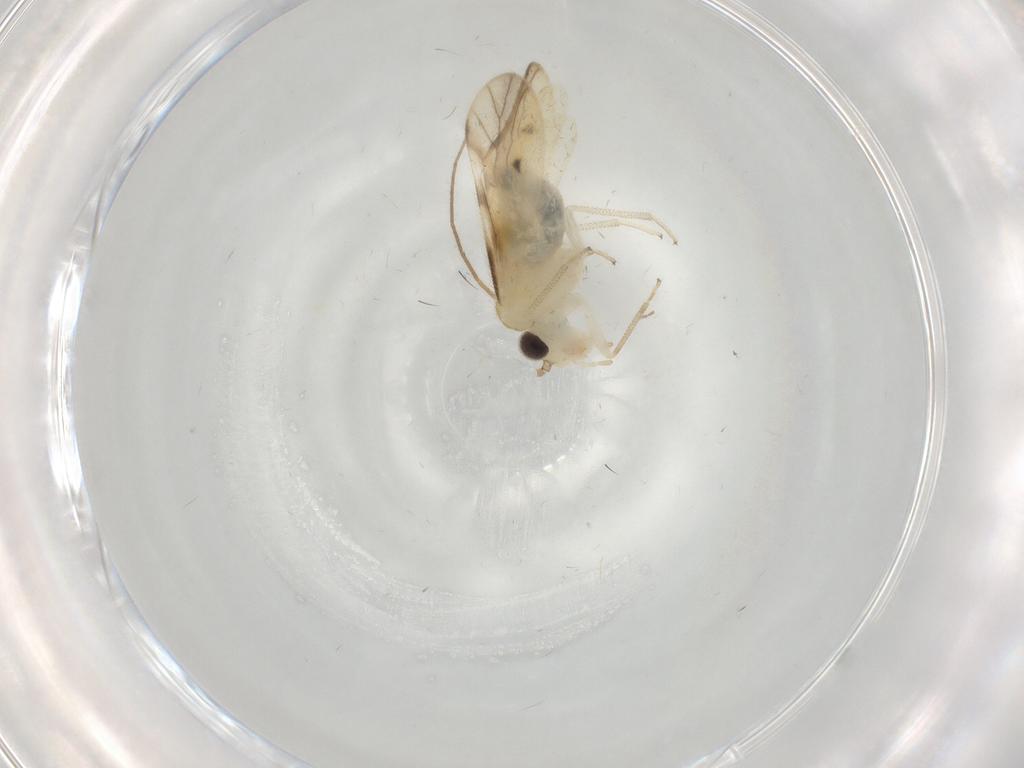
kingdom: Animalia
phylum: Arthropoda
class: Insecta
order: Psocodea
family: Caeciliusidae
